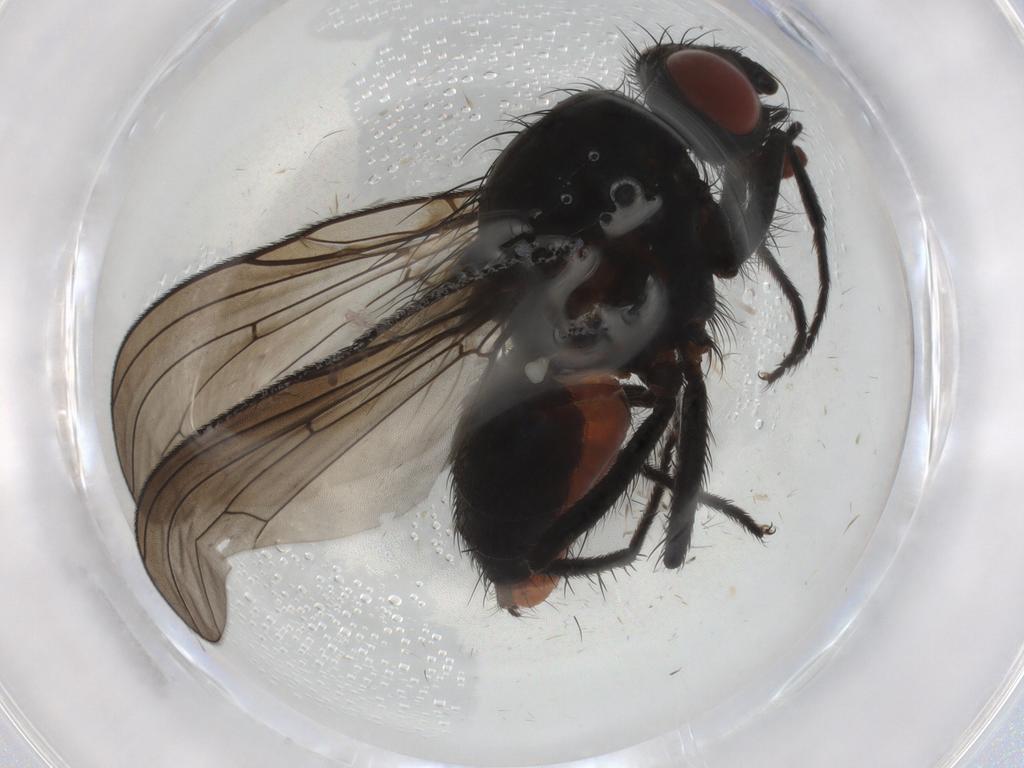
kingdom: Animalia
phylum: Arthropoda
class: Insecta
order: Diptera
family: Anthomyiidae
